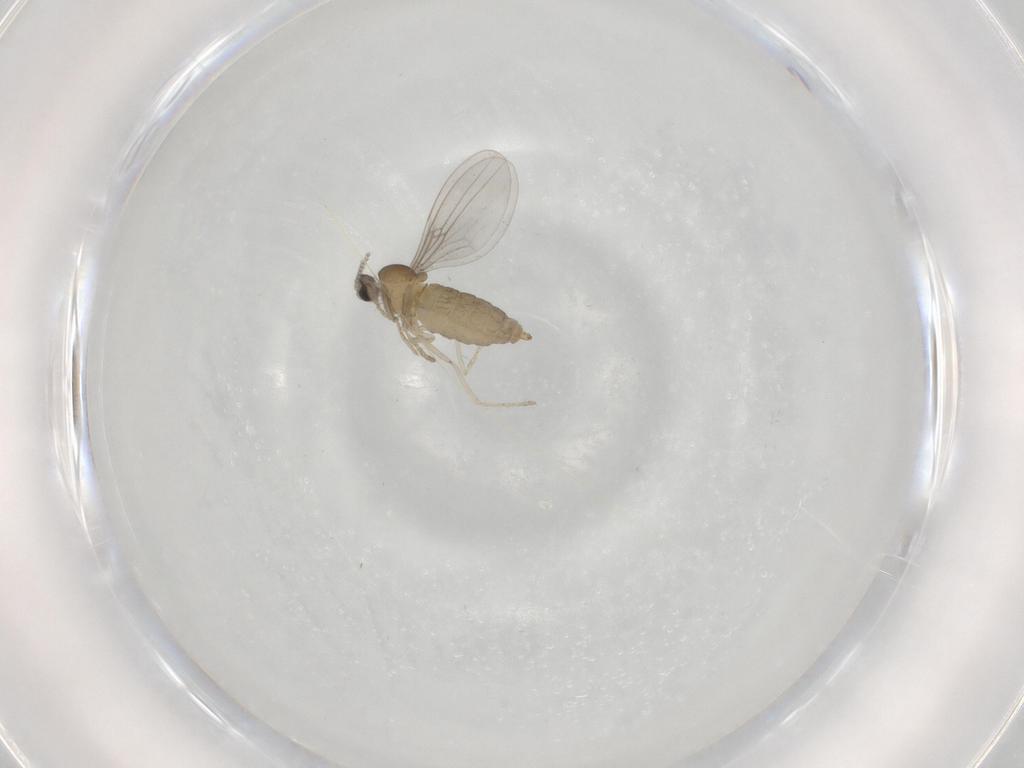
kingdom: Animalia
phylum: Arthropoda
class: Insecta
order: Diptera
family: Cecidomyiidae
